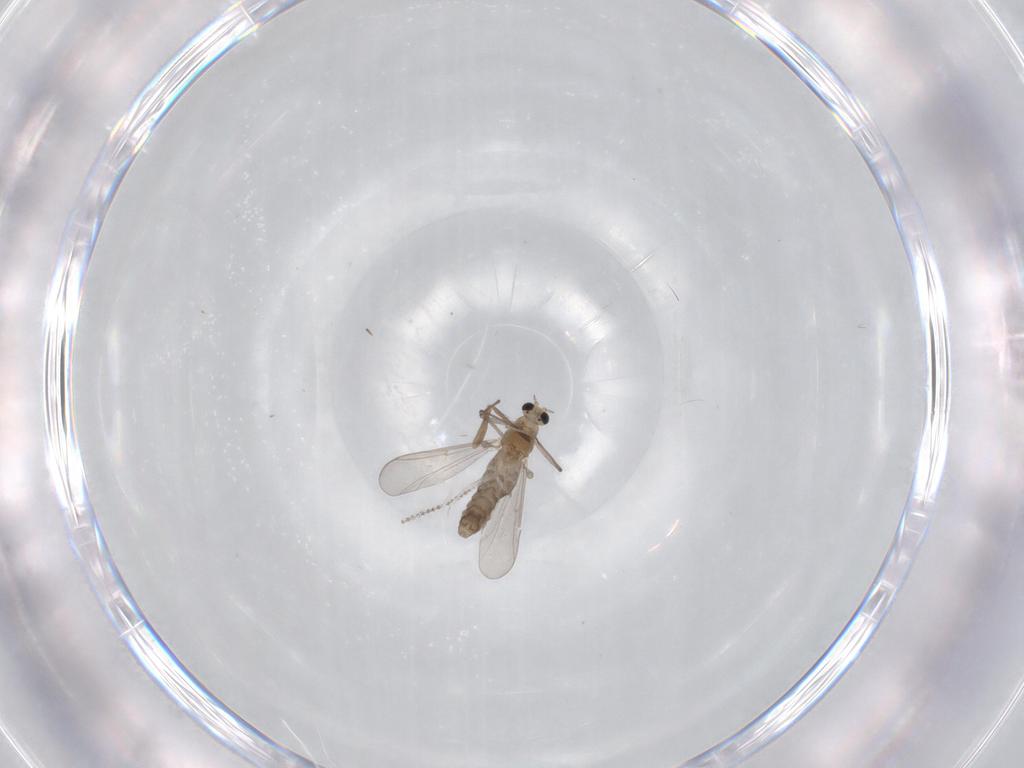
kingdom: Animalia
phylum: Arthropoda
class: Insecta
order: Diptera
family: Chironomidae
